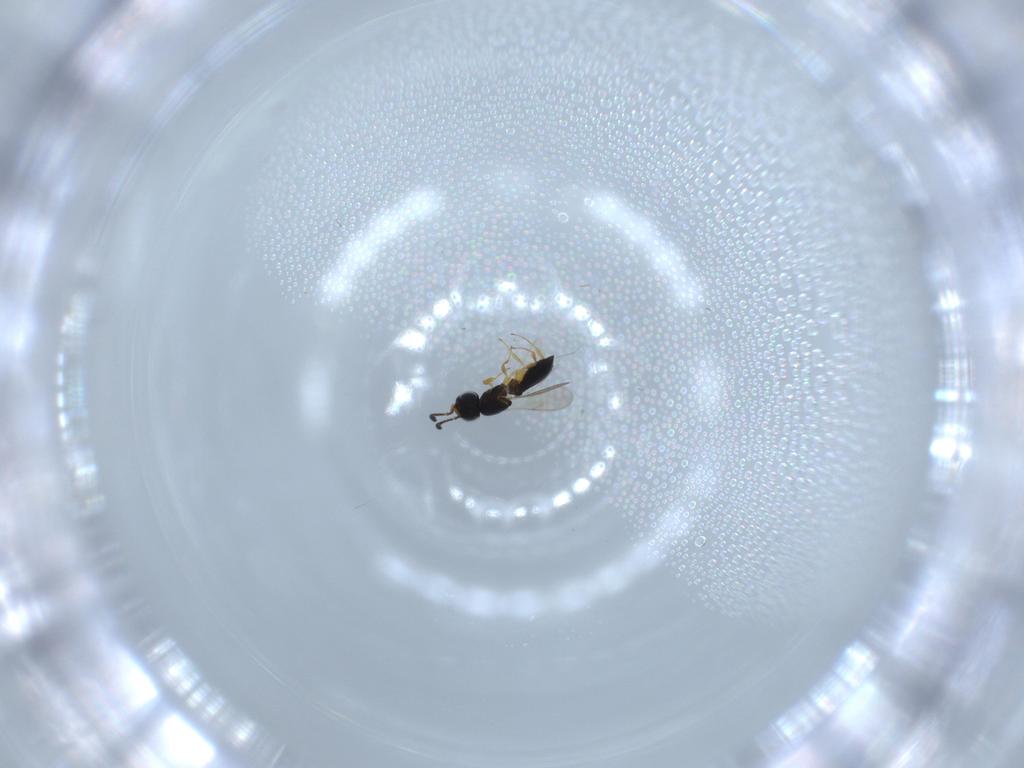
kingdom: Animalia
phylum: Arthropoda
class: Insecta
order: Hymenoptera
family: Scelionidae
